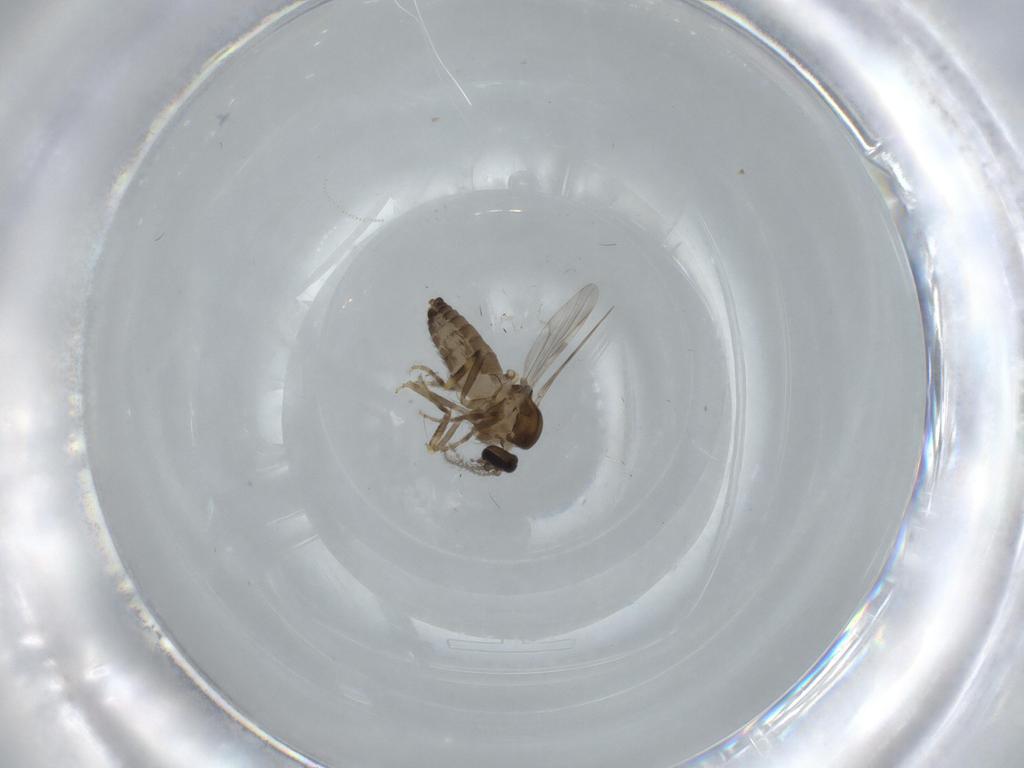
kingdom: Animalia
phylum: Arthropoda
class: Insecta
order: Diptera
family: Ceratopogonidae
